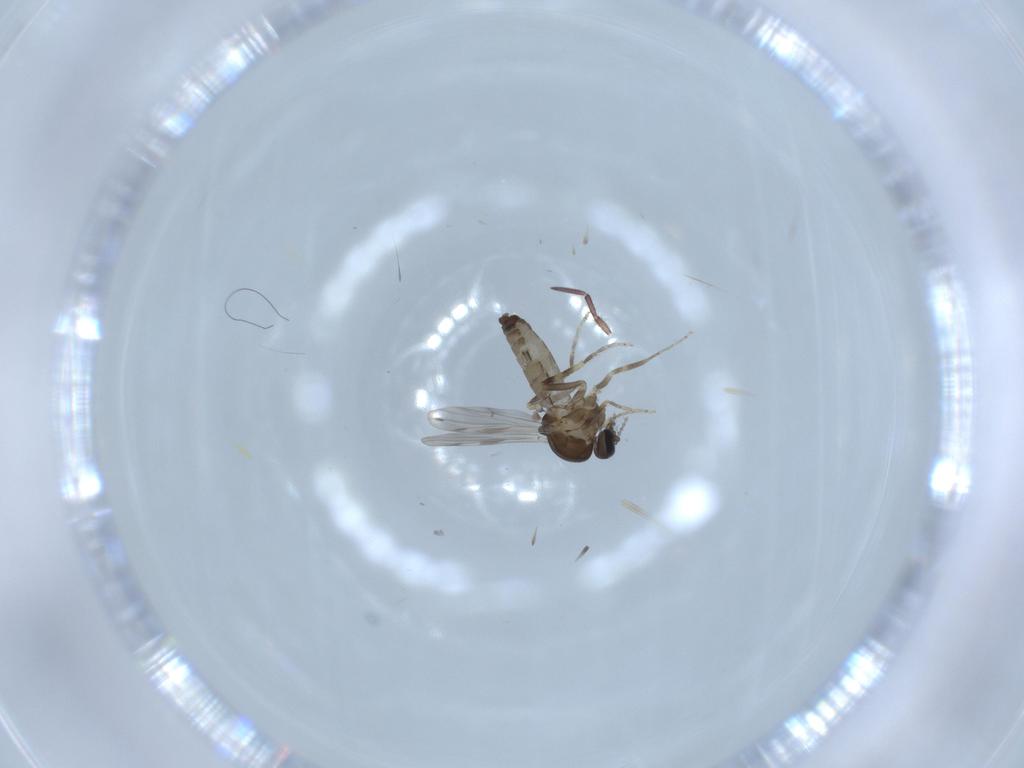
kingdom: Animalia
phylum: Arthropoda
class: Insecta
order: Diptera
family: Ceratopogonidae
